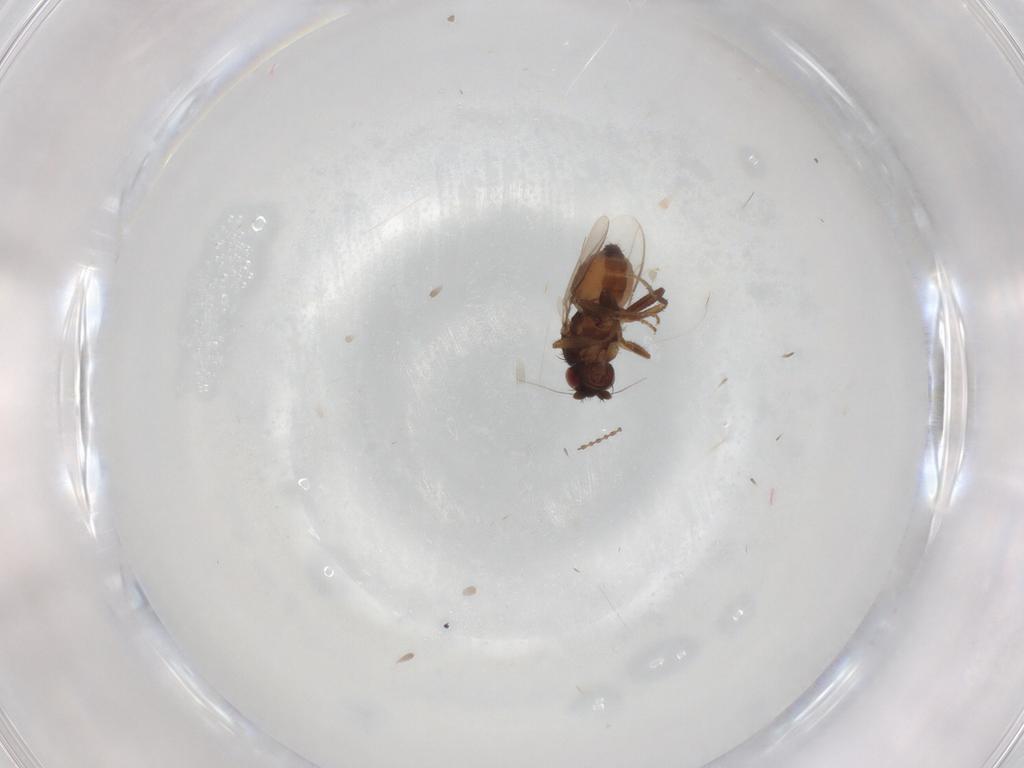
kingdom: Animalia
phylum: Arthropoda
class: Insecta
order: Diptera
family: Sphaeroceridae
